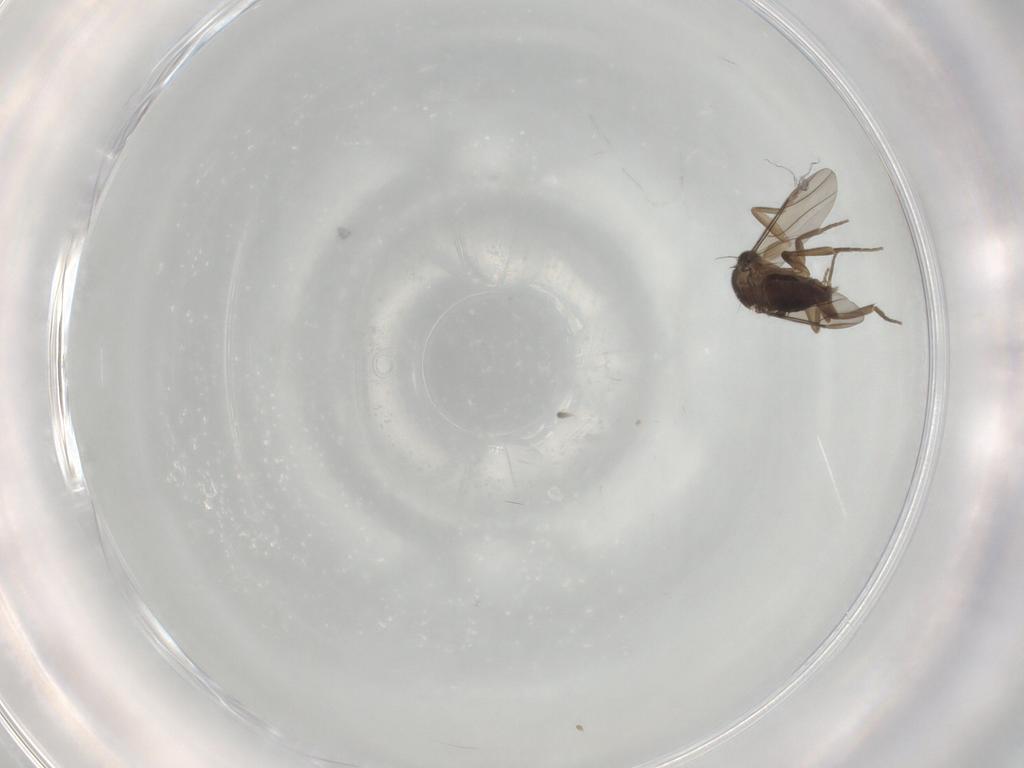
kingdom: Animalia
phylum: Arthropoda
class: Insecta
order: Diptera
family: Phoridae
